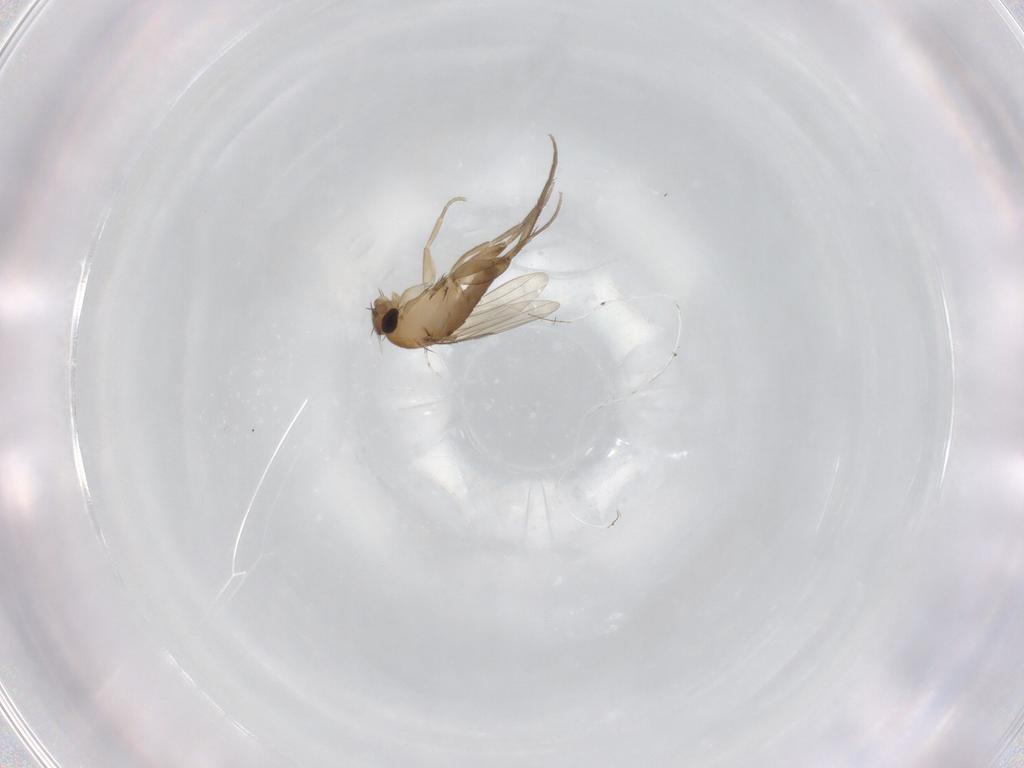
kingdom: Animalia
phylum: Arthropoda
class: Insecta
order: Diptera
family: Phoridae
